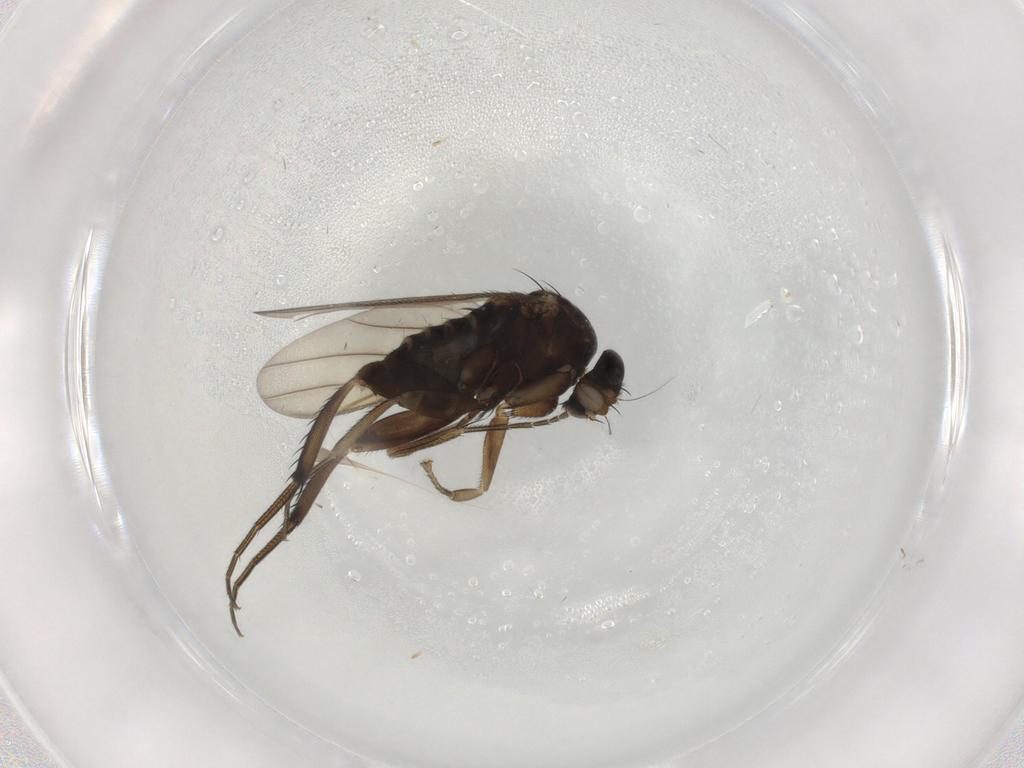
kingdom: Animalia
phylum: Arthropoda
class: Insecta
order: Diptera
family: Phoridae
